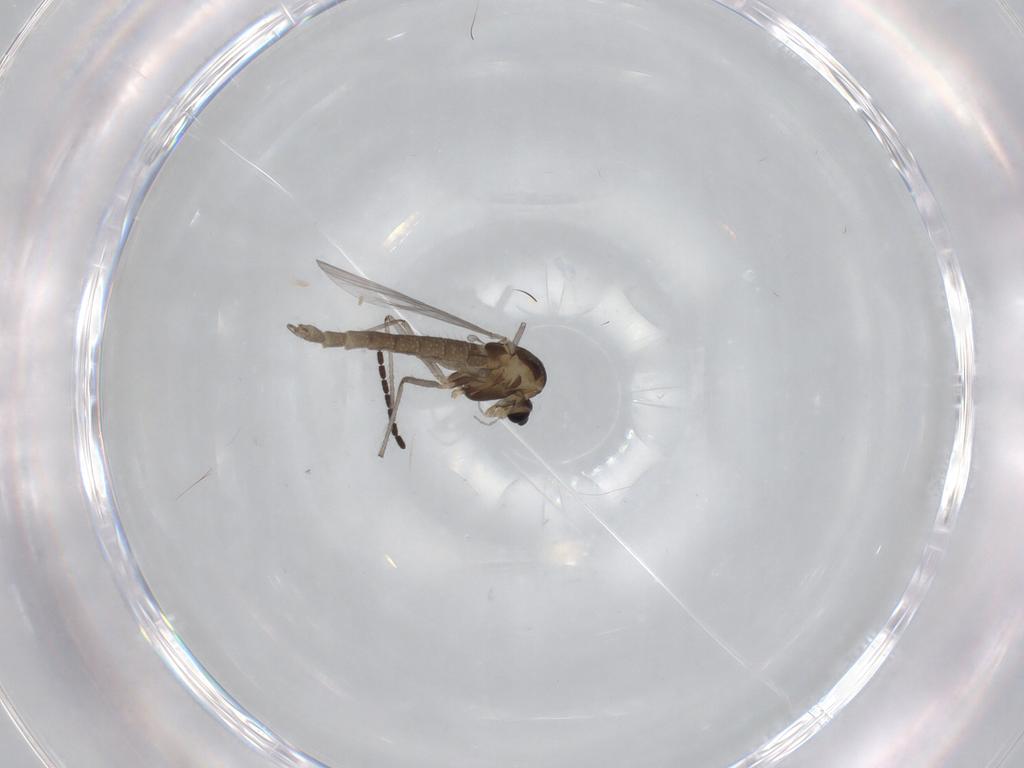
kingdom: Animalia
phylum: Arthropoda
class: Insecta
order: Diptera
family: Chironomidae
